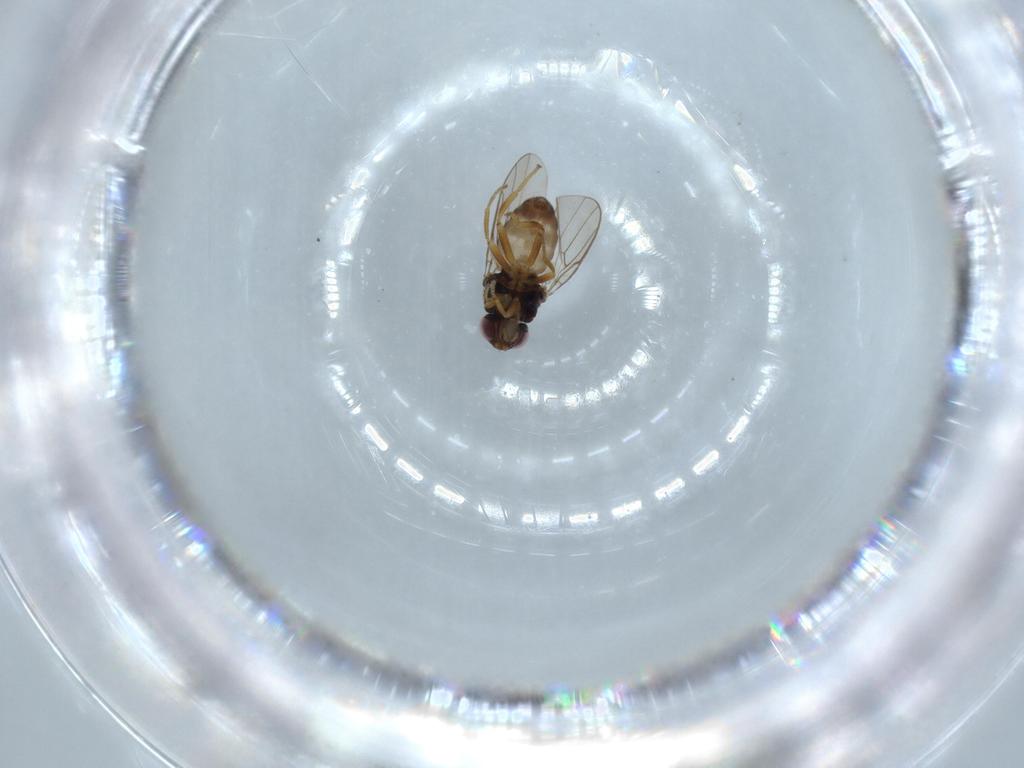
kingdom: Animalia
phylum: Arthropoda
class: Insecta
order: Diptera
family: Chloropidae
